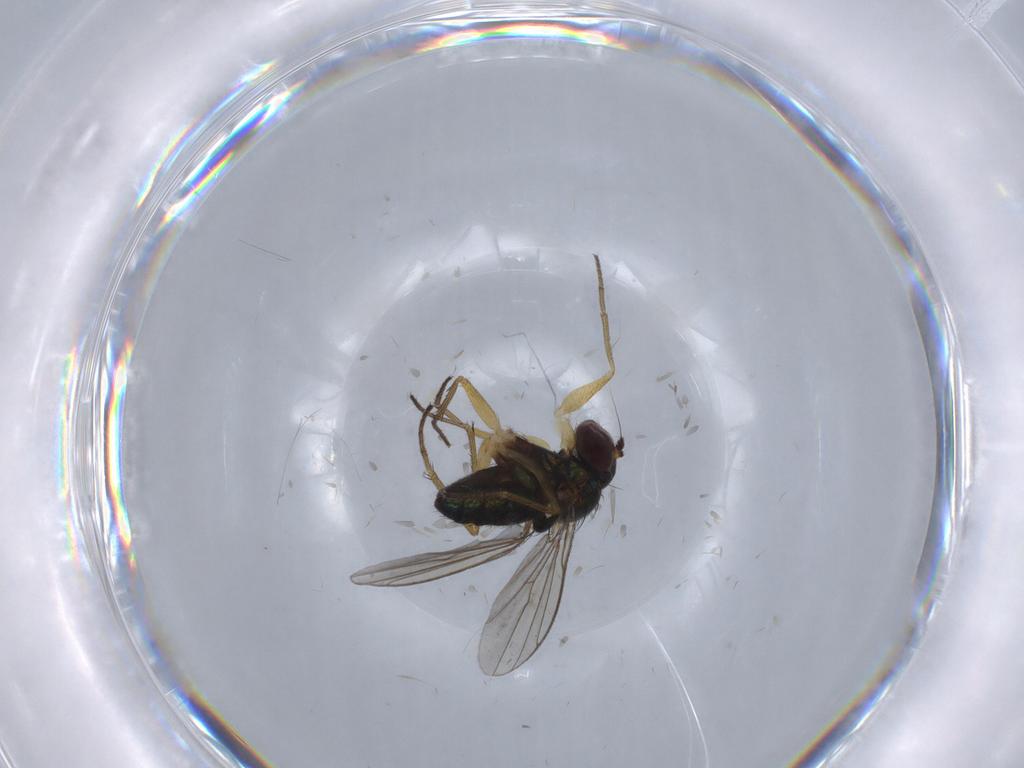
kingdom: Animalia
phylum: Arthropoda
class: Insecta
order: Diptera
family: Dolichopodidae
